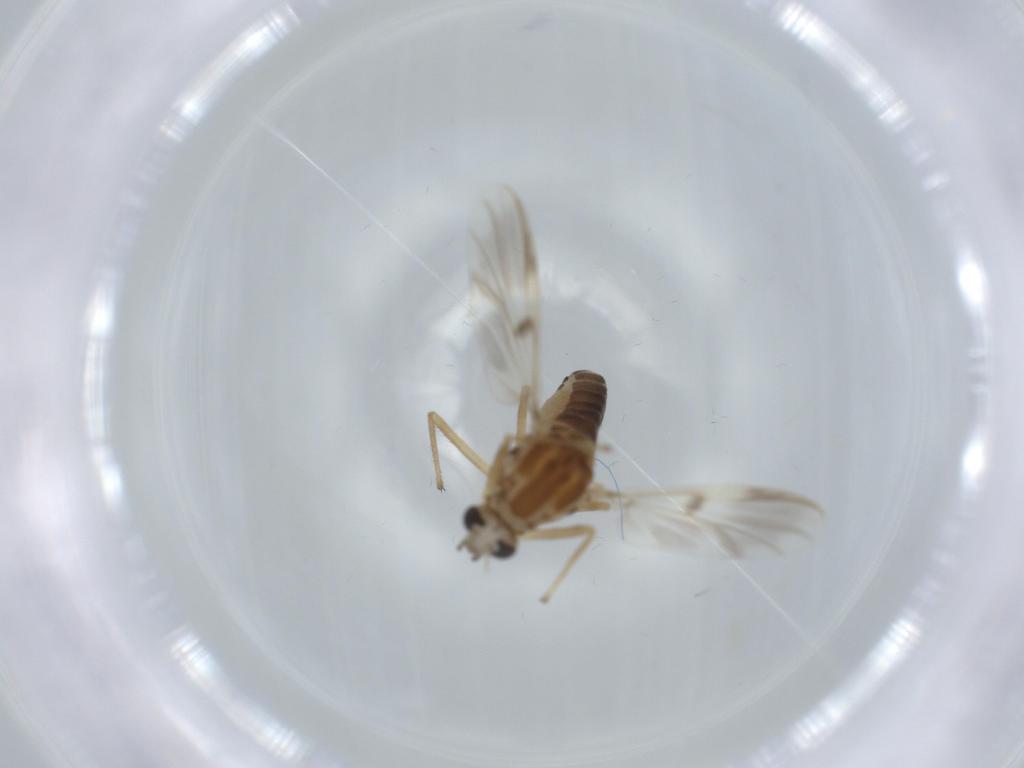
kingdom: Animalia
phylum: Arthropoda
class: Insecta
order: Diptera
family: Chironomidae
